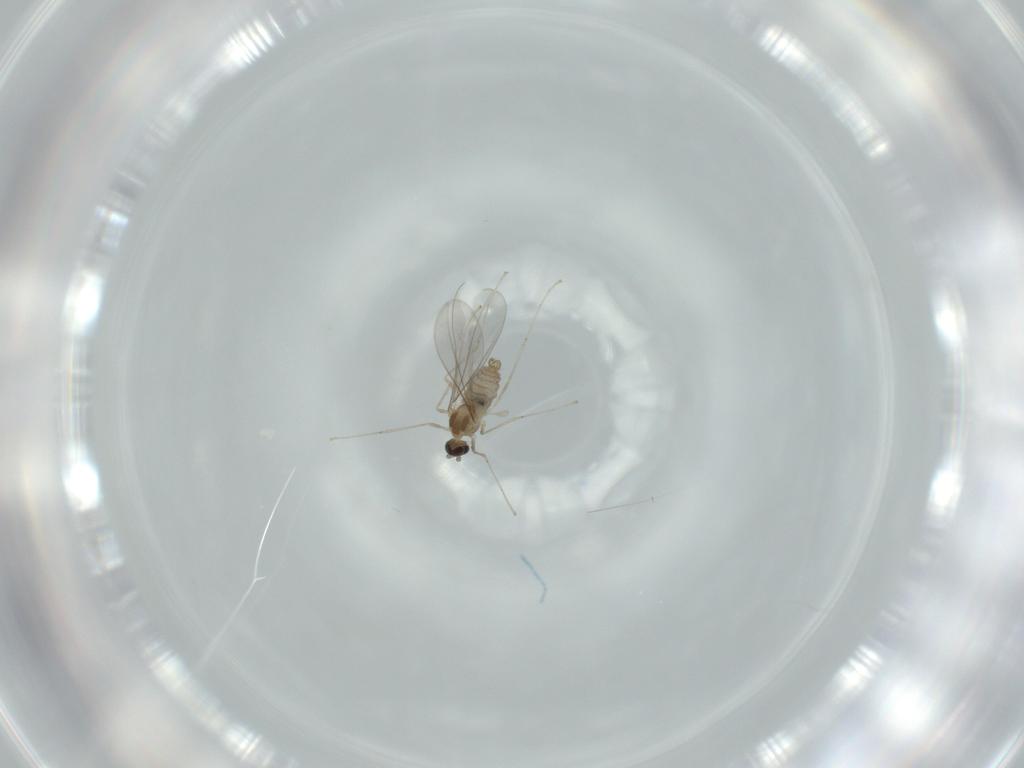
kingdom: Animalia
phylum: Arthropoda
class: Insecta
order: Diptera
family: Cecidomyiidae
